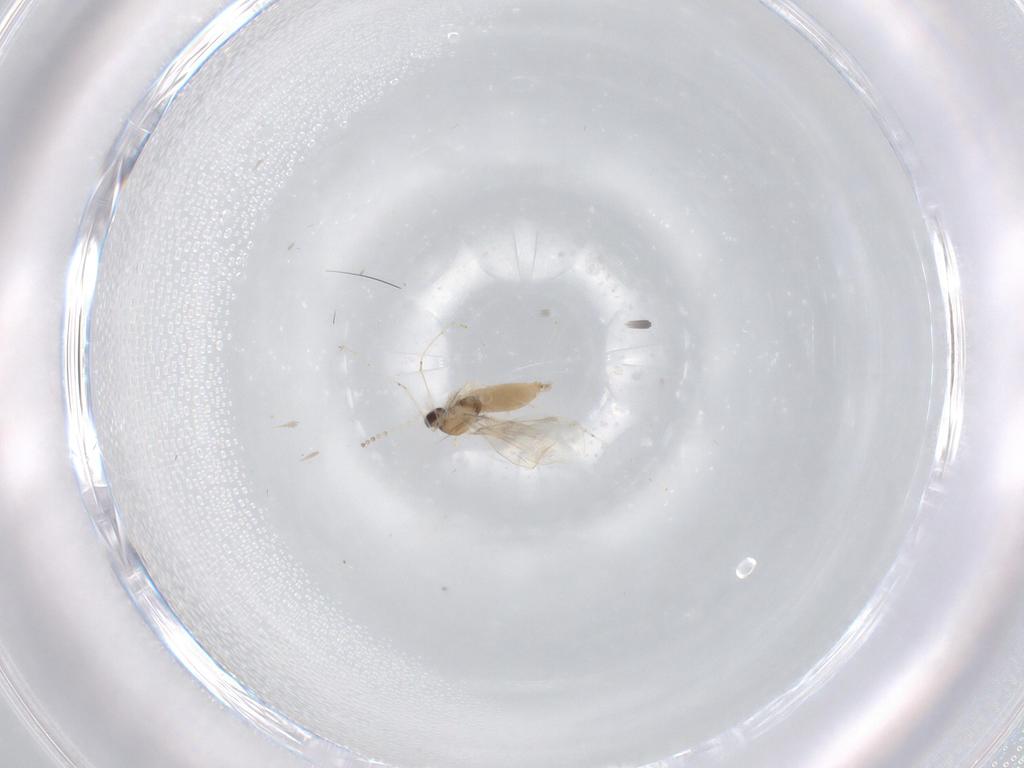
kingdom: Animalia
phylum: Arthropoda
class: Insecta
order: Diptera
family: Cecidomyiidae
